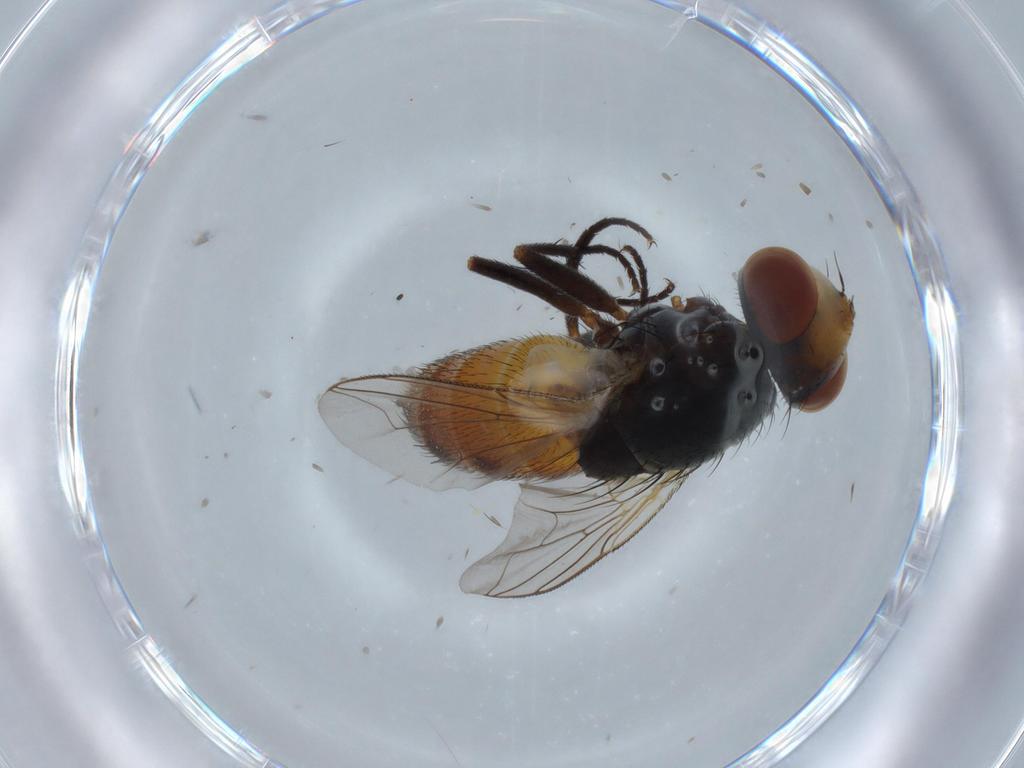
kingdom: Animalia
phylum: Arthropoda
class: Insecta
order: Diptera
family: Sarcophagidae
